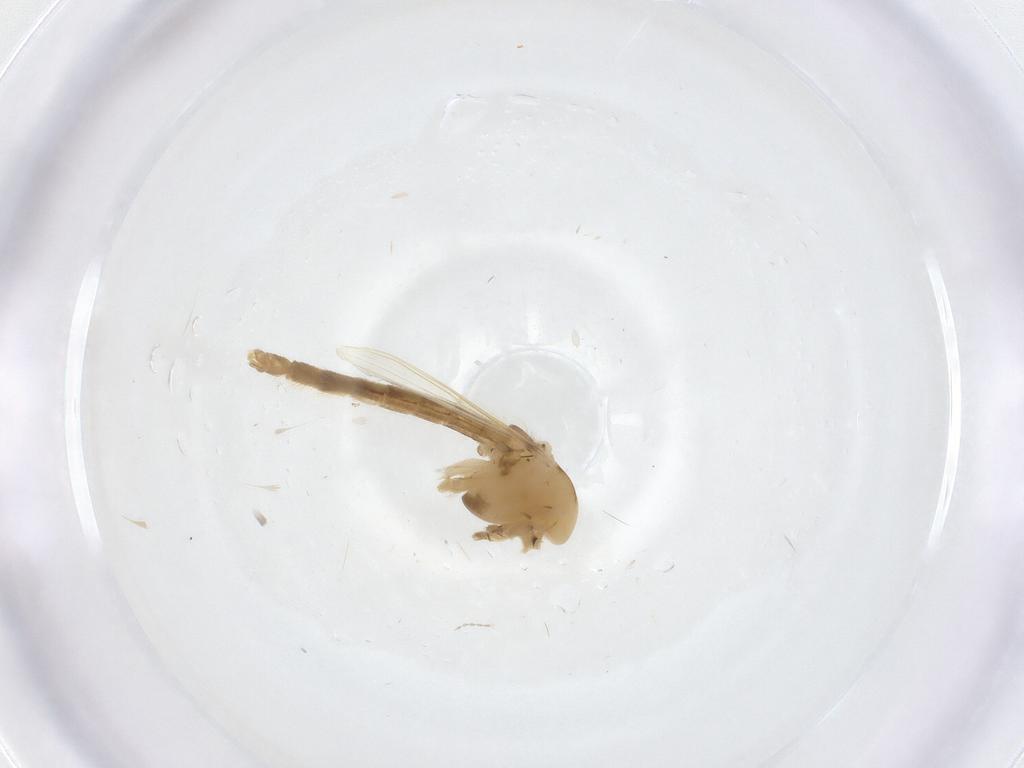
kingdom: Animalia
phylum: Arthropoda
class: Insecta
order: Diptera
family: Chironomidae
